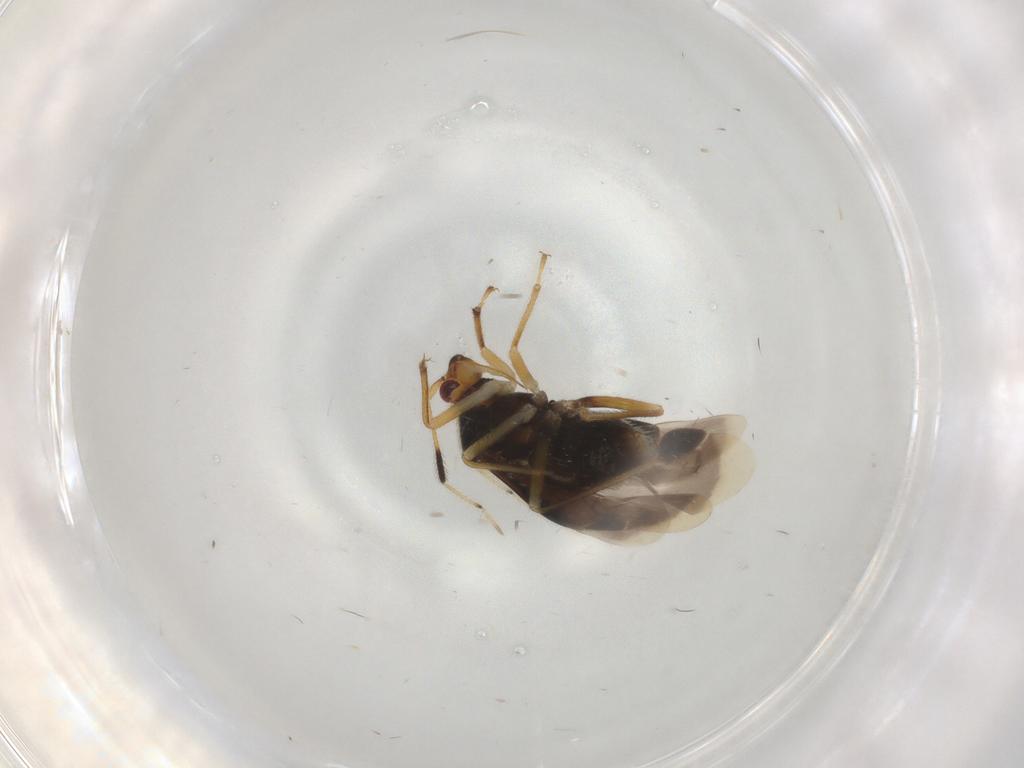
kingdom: Animalia
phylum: Arthropoda
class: Insecta
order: Hemiptera
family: Miridae
